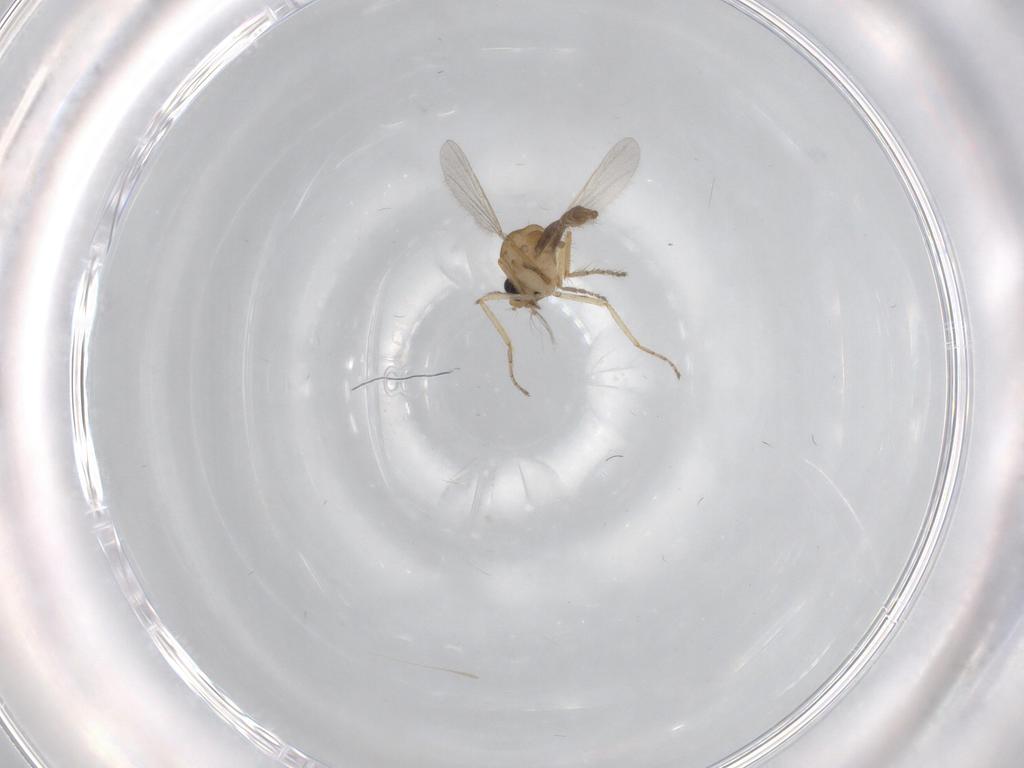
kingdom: Animalia
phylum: Arthropoda
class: Insecta
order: Diptera
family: Ceratopogonidae
